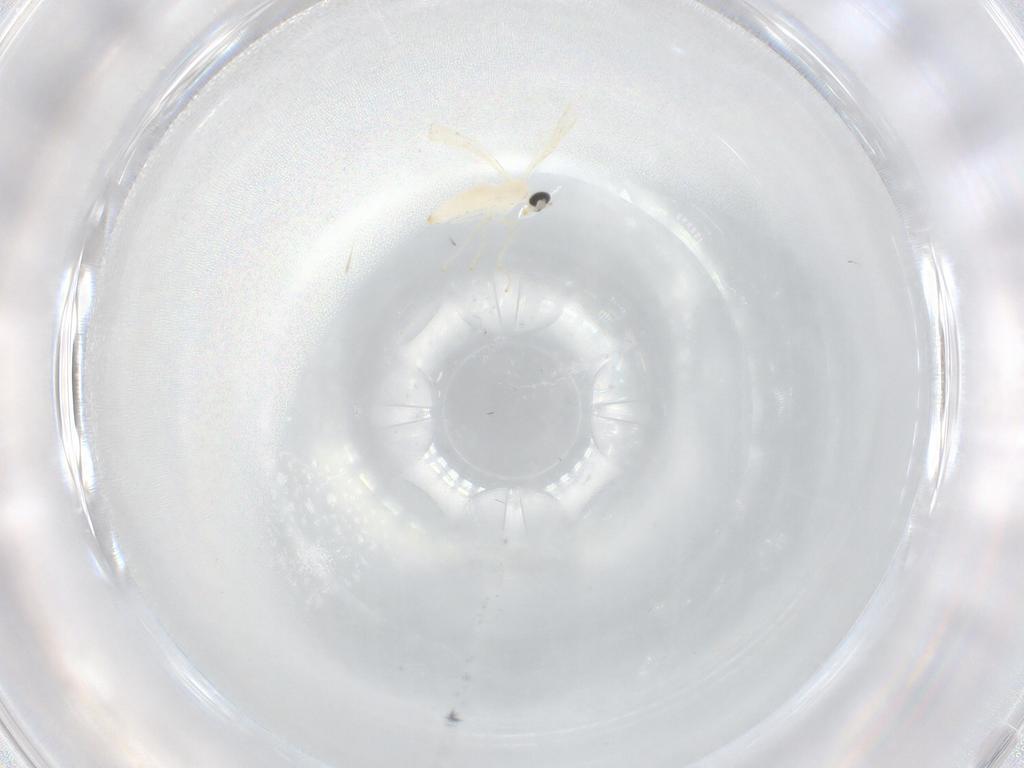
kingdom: Animalia
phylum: Arthropoda
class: Insecta
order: Diptera
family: Cecidomyiidae
